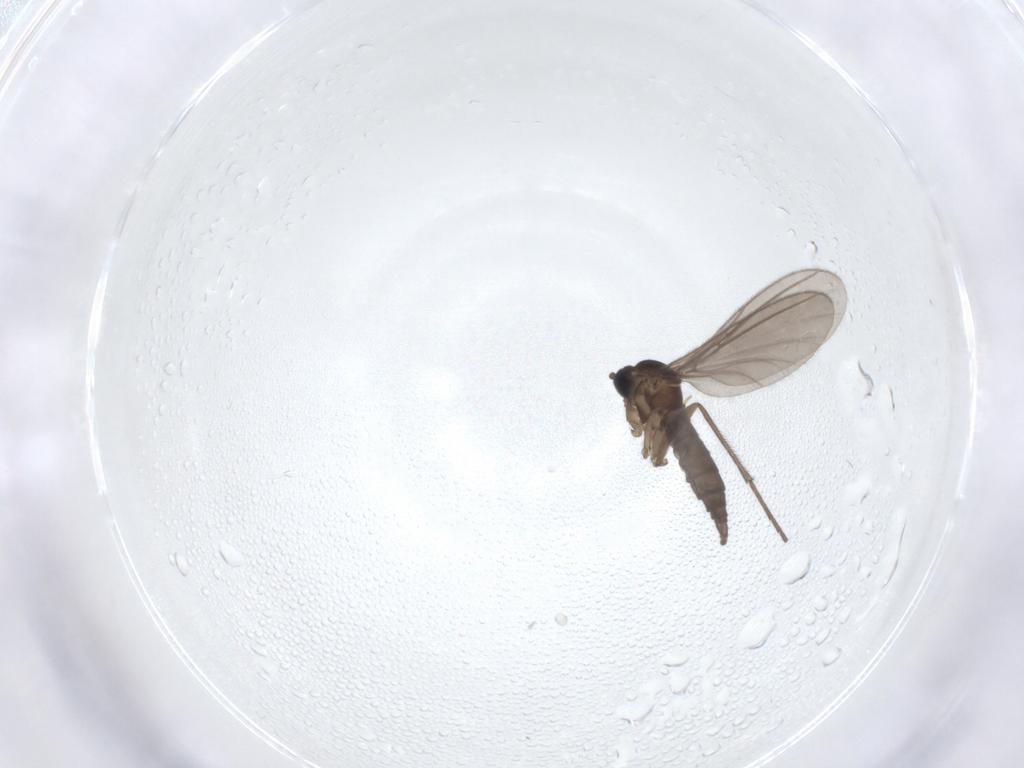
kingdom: Animalia
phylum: Arthropoda
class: Insecta
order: Diptera
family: Sciaridae
